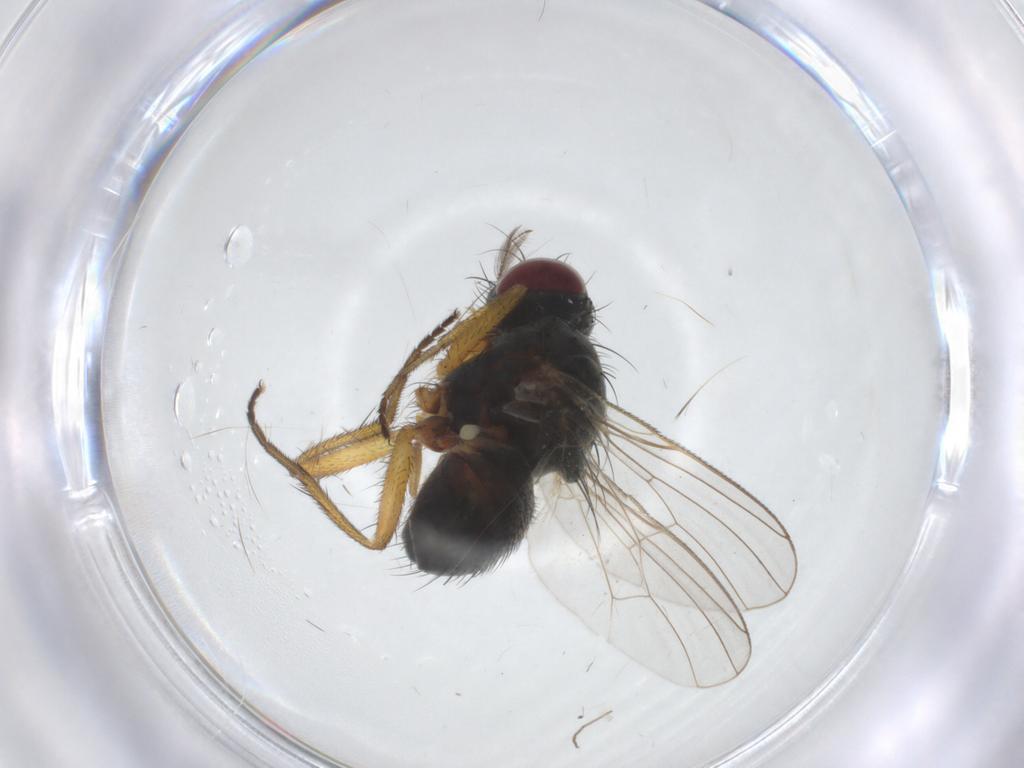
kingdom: Animalia
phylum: Arthropoda
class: Insecta
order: Diptera
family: Muscidae
